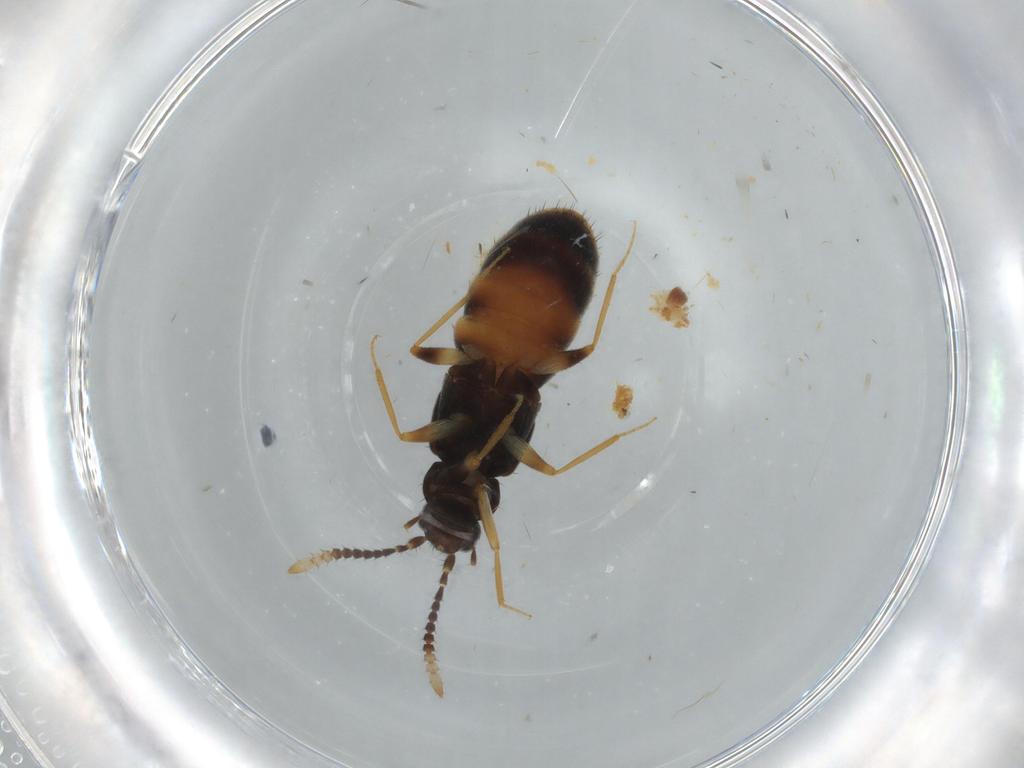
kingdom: Animalia
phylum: Arthropoda
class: Insecta
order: Coleoptera
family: Staphylinidae
